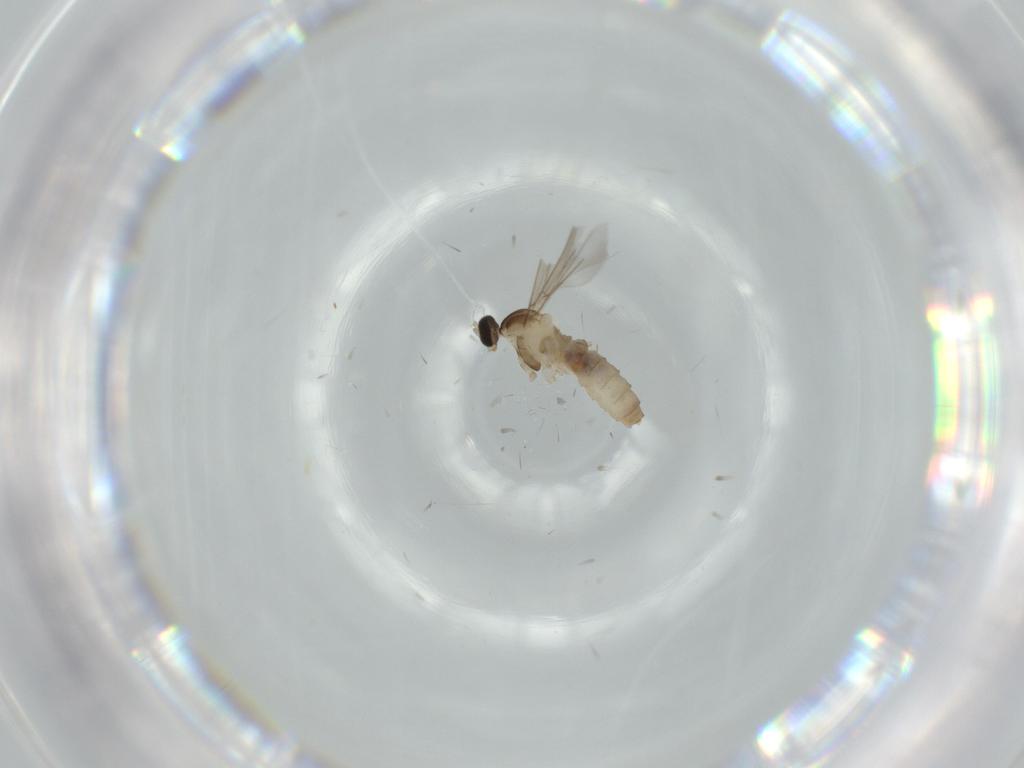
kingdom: Animalia
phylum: Arthropoda
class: Insecta
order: Diptera
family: Cecidomyiidae
